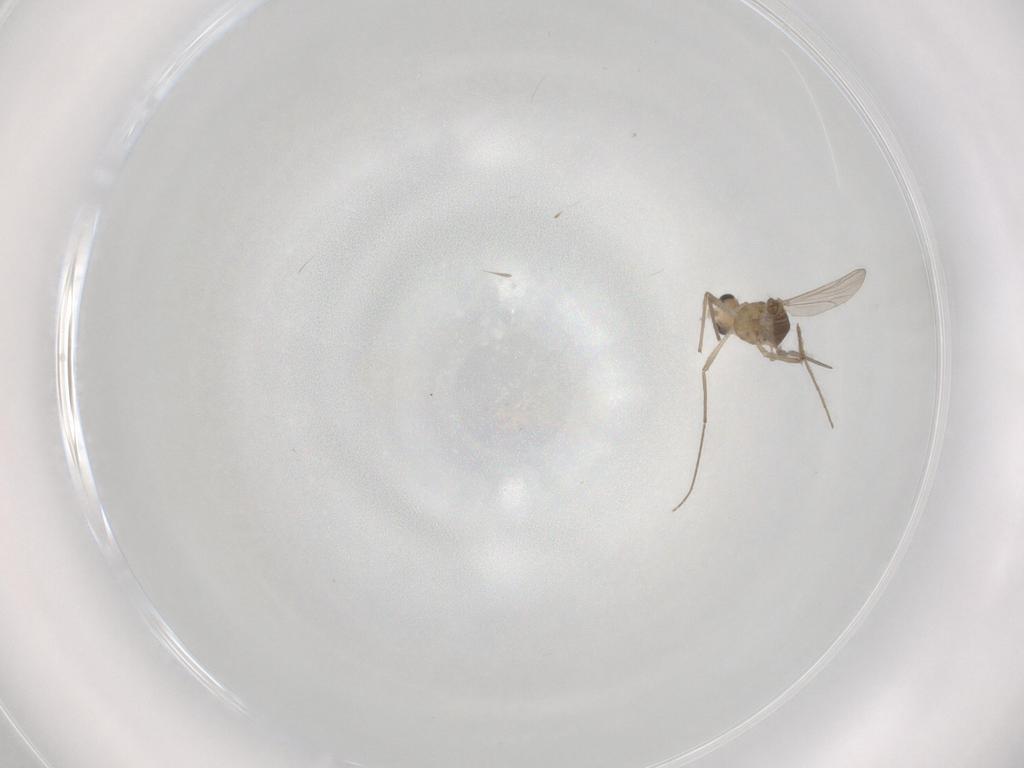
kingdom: Animalia
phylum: Arthropoda
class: Insecta
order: Diptera
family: Chironomidae
